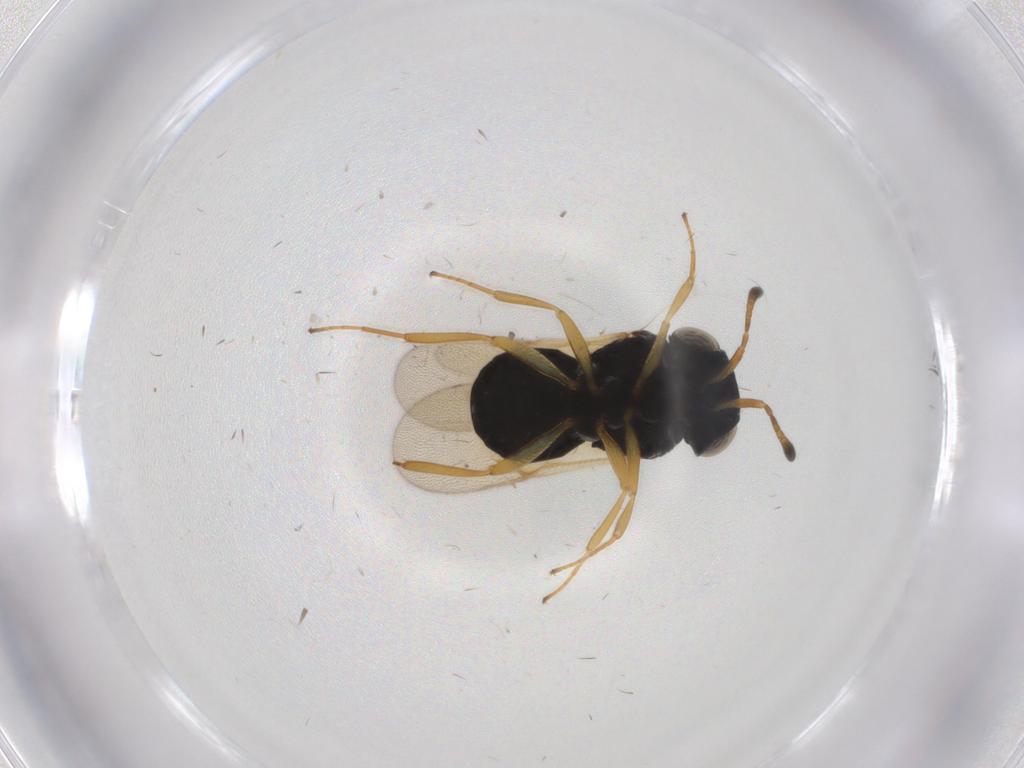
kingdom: Animalia
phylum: Arthropoda
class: Insecta
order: Hymenoptera
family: Scelionidae
